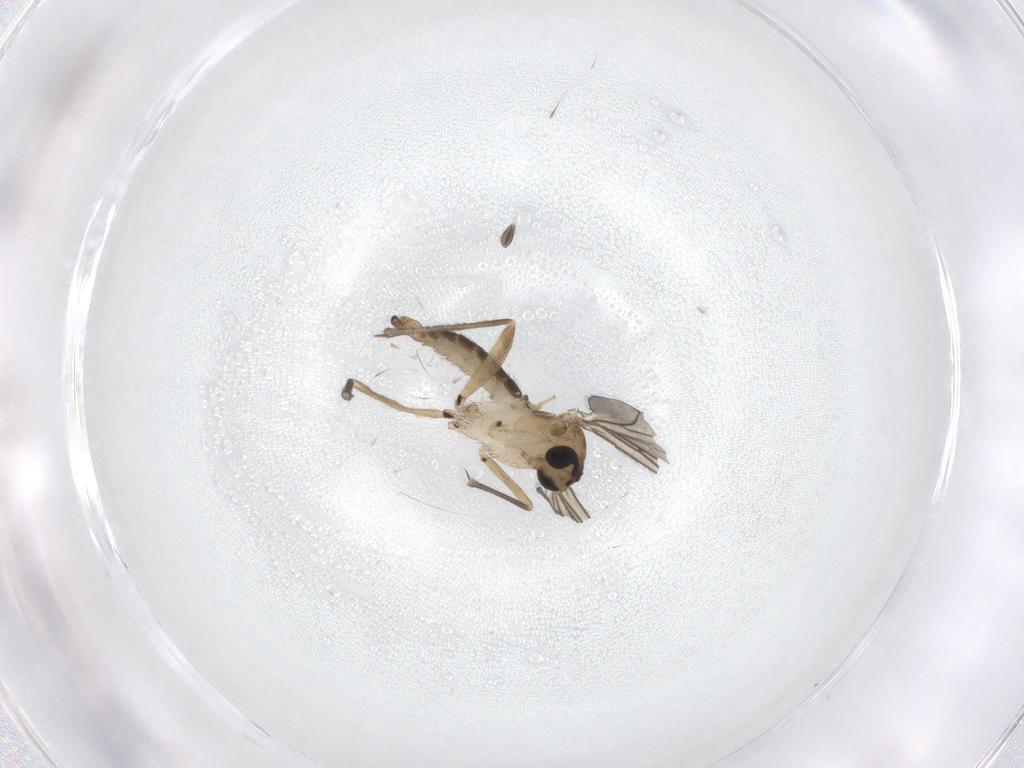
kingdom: Animalia
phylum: Arthropoda
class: Insecta
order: Diptera
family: Sciaridae
